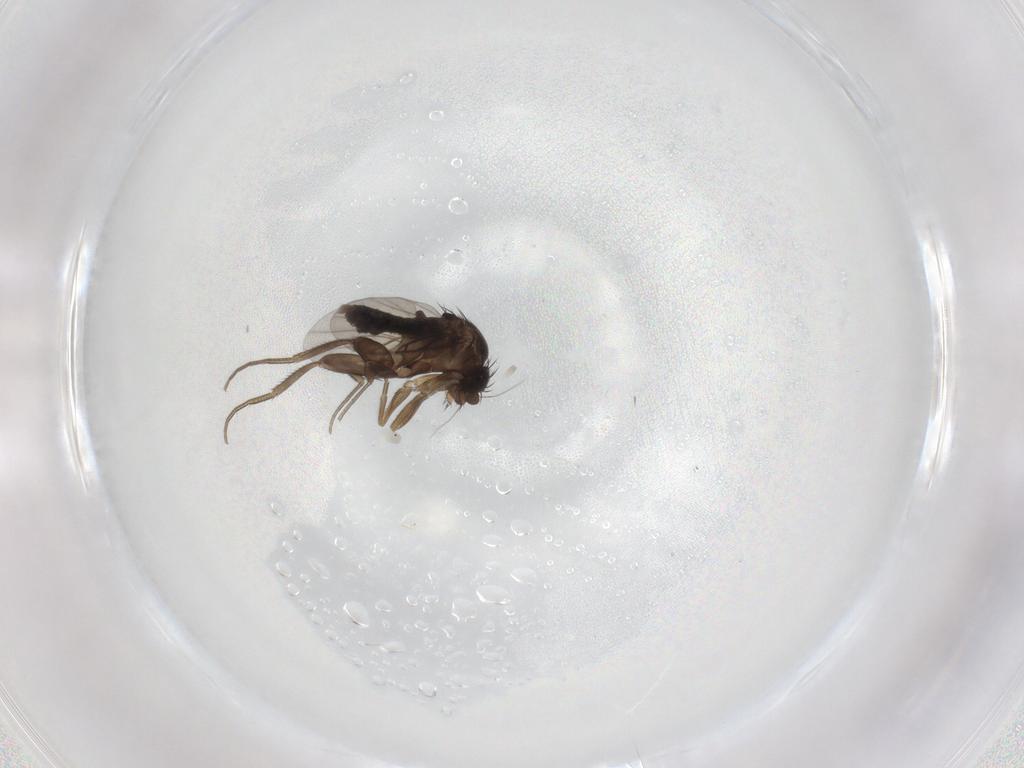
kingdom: Animalia
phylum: Arthropoda
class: Insecta
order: Diptera
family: Phoridae
